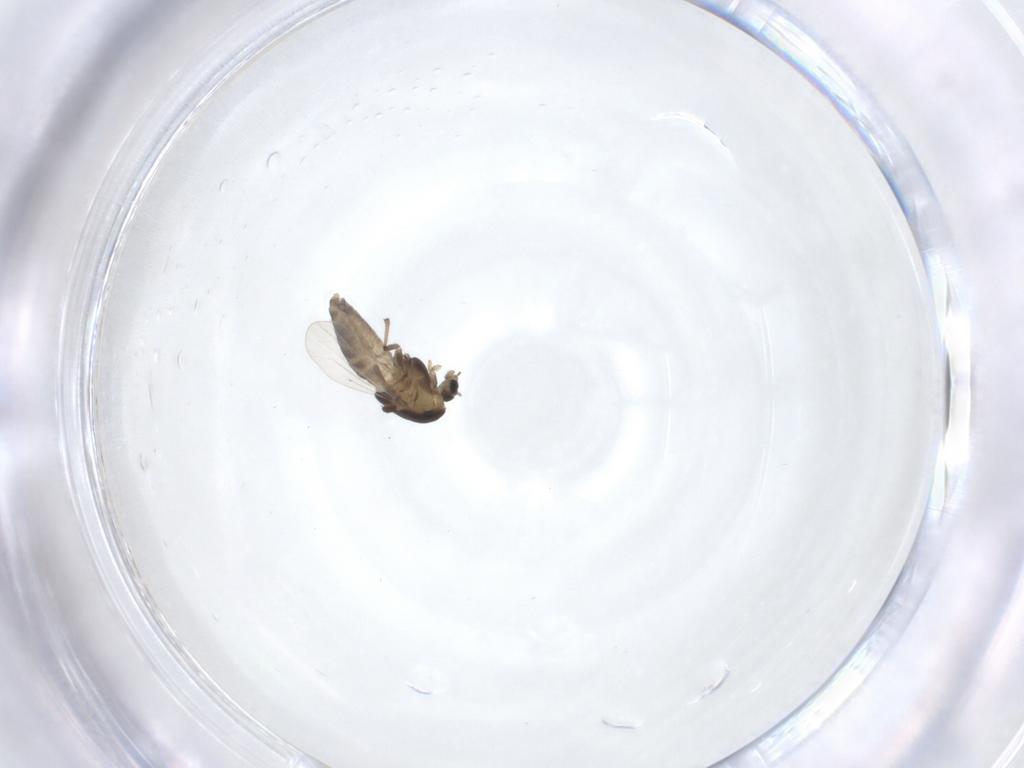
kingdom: Animalia
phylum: Arthropoda
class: Insecta
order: Diptera
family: Chironomidae
